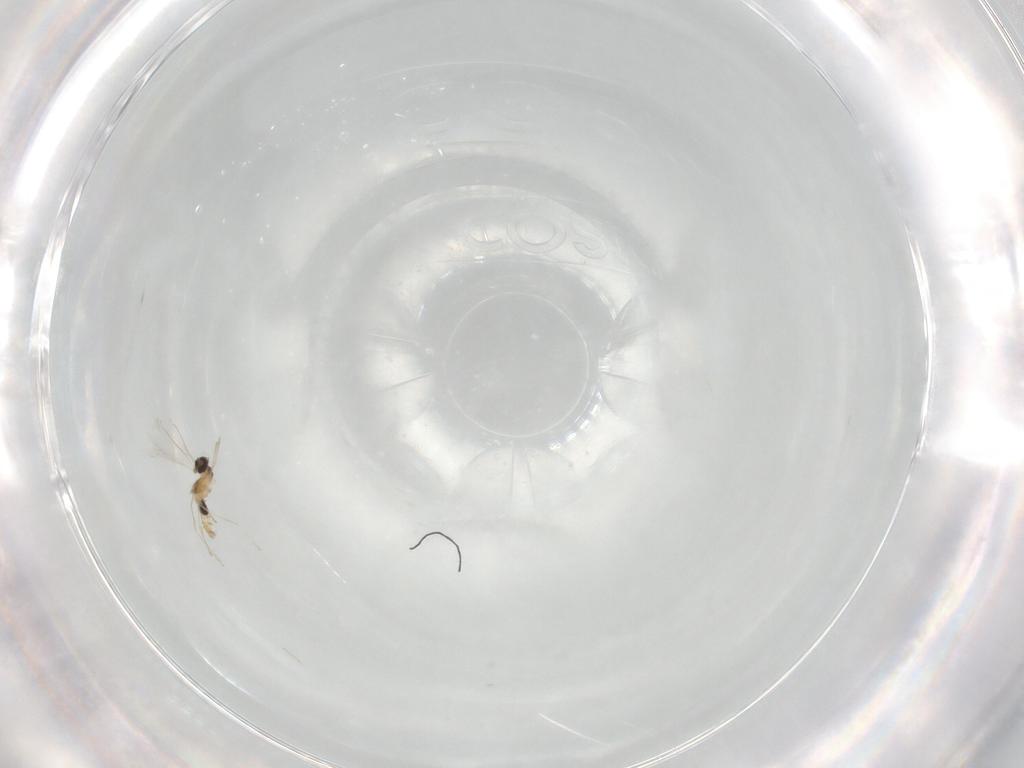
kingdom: Animalia
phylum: Arthropoda
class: Insecta
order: Diptera
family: Cecidomyiidae
